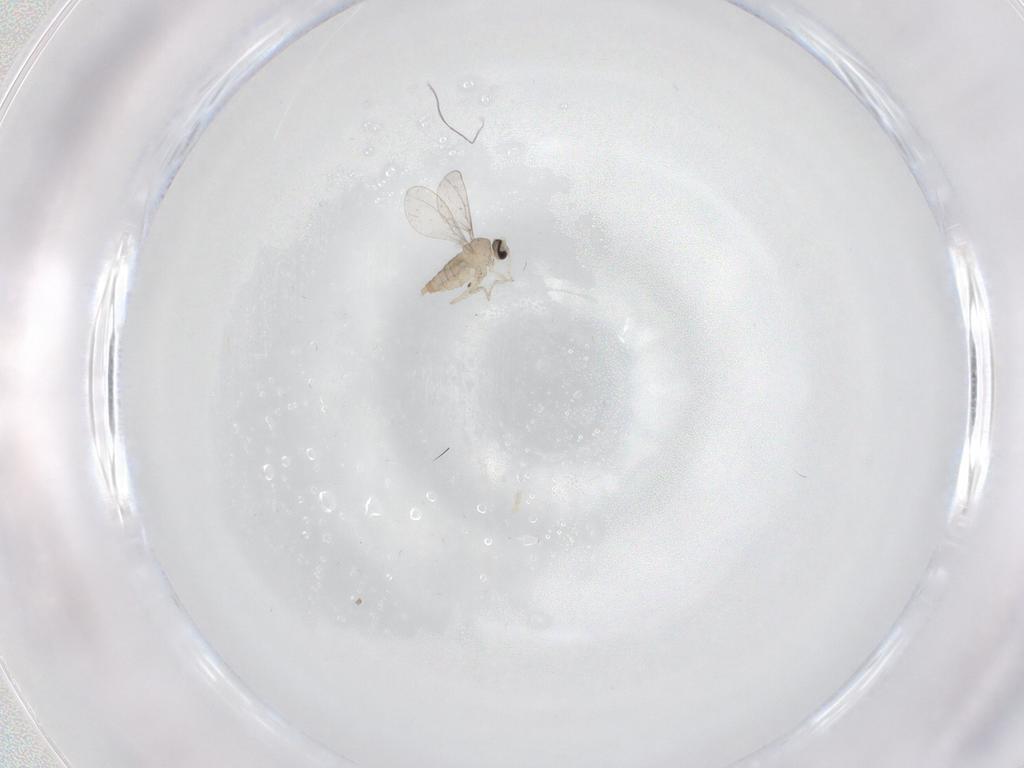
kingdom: Animalia
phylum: Arthropoda
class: Insecta
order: Diptera
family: Cecidomyiidae
